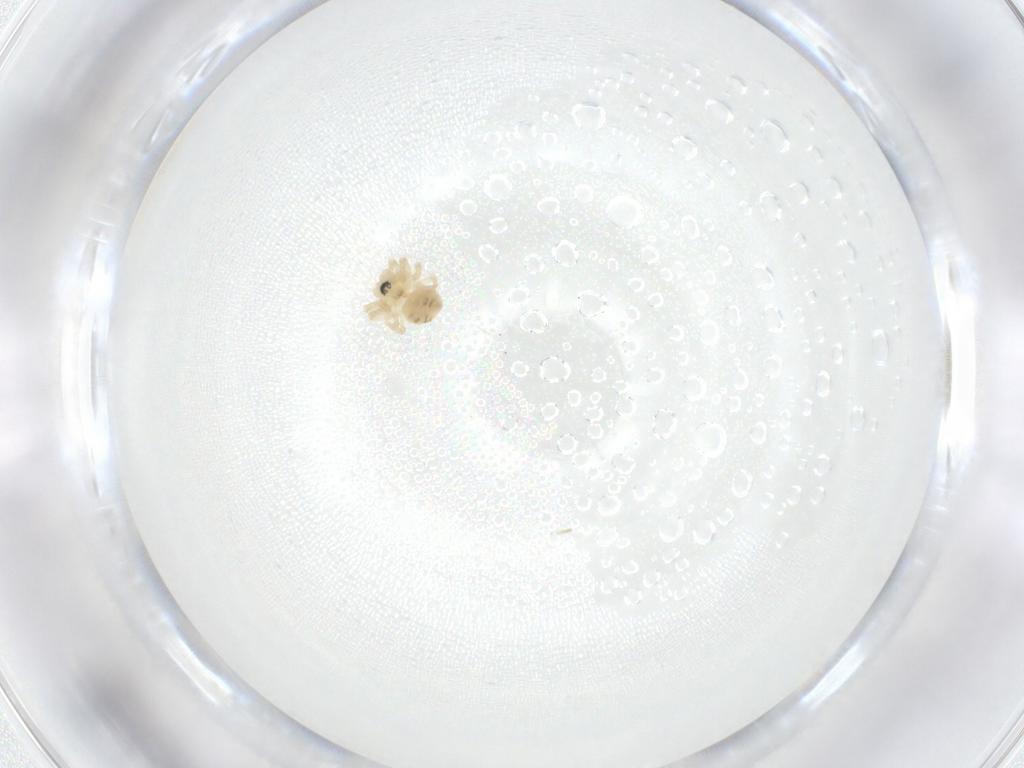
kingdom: Animalia
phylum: Arthropoda
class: Arachnida
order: Araneae
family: Linyphiidae
